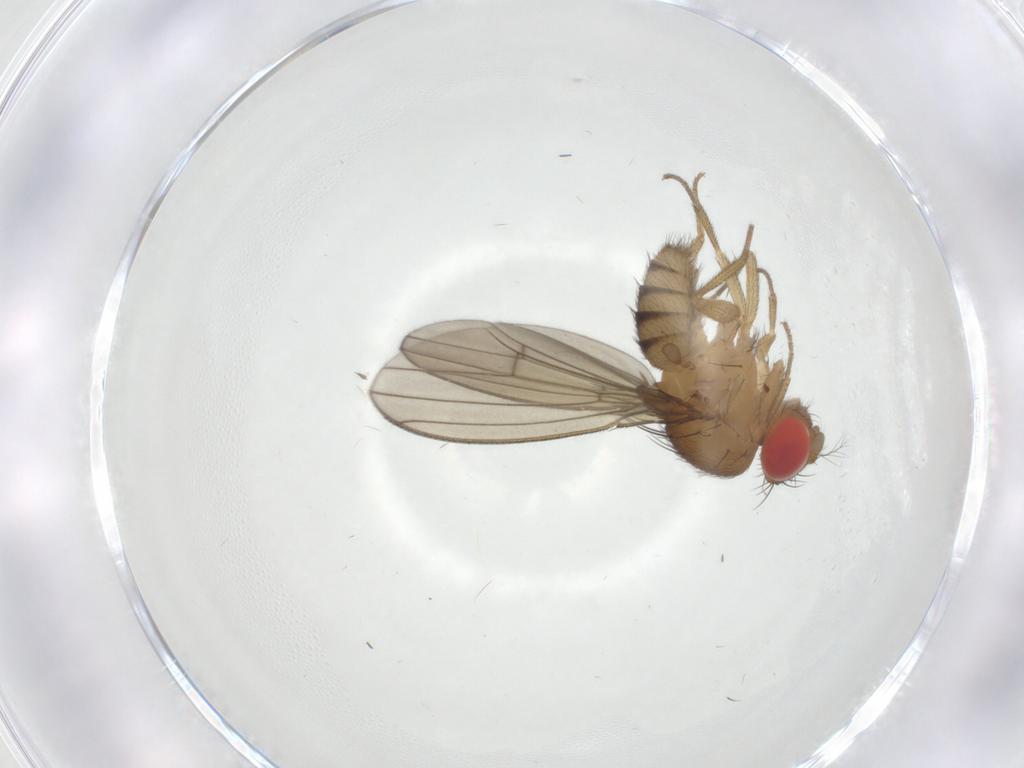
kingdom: Animalia
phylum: Arthropoda
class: Insecta
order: Diptera
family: Drosophilidae
